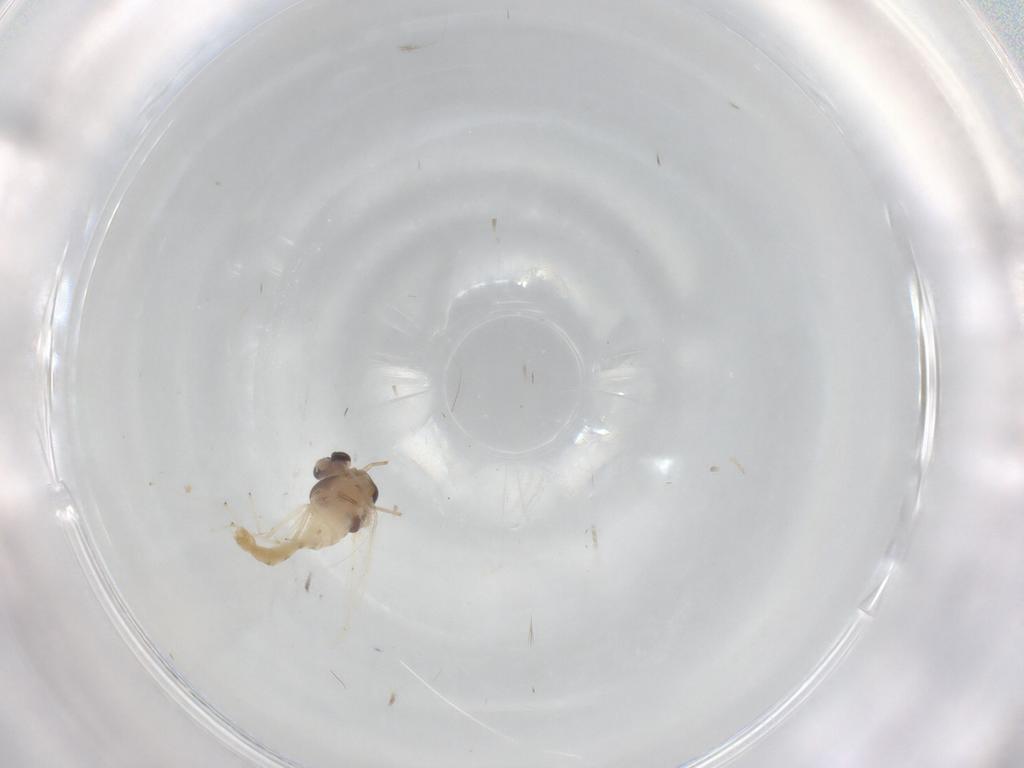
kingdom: Animalia
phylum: Arthropoda
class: Insecta
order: Diptera
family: Chironomidae
